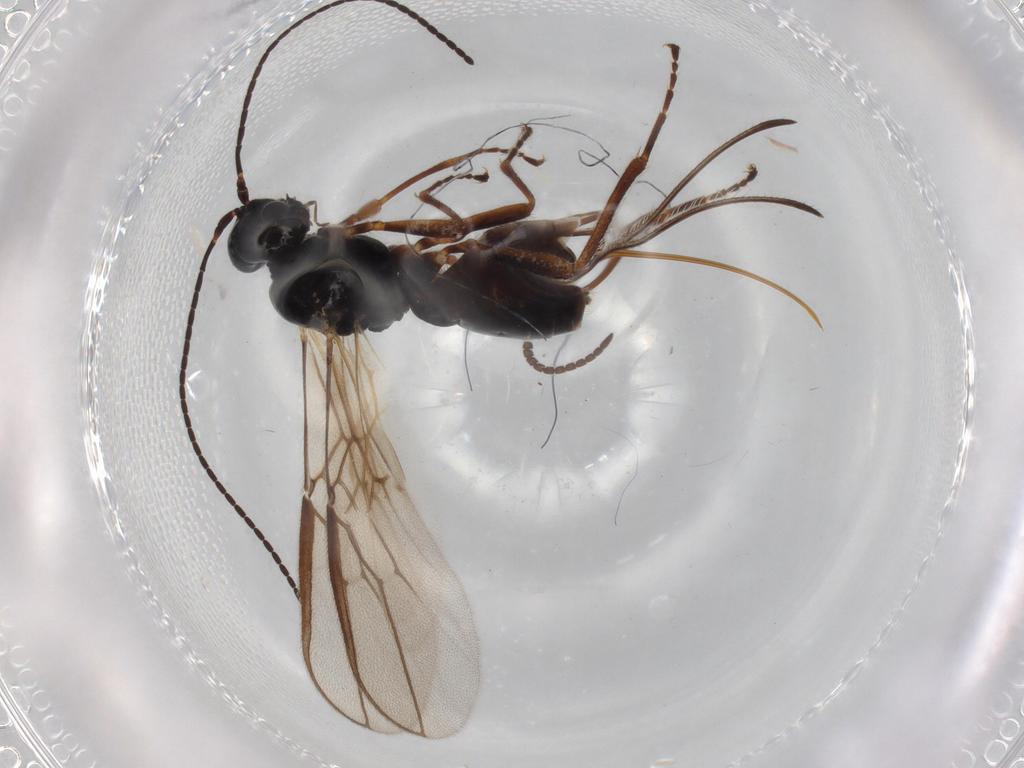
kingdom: Animalia
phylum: Arthropoda
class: Insecta
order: Hymenoptera
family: Braconidae
